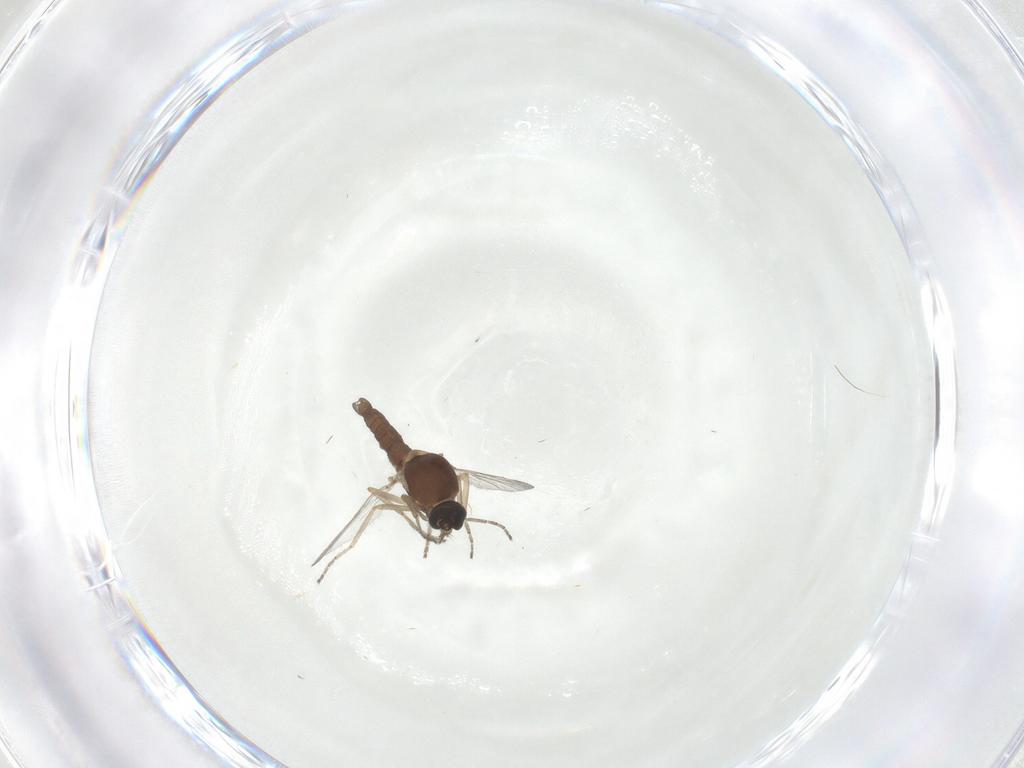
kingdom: Animalia
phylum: Arthropoda
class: Insecta
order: Diptera
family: Ceratopogonidae
